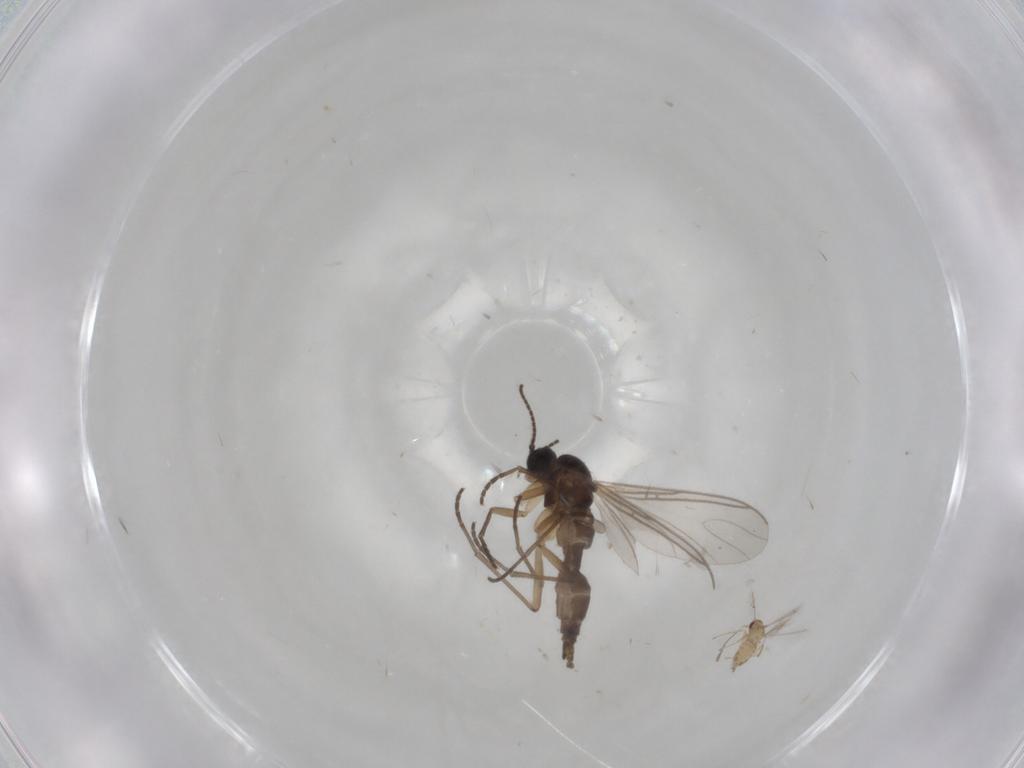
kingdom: Animalia
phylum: Arthropoda
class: Insecta
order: Hymenoptera
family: Mymaridae
